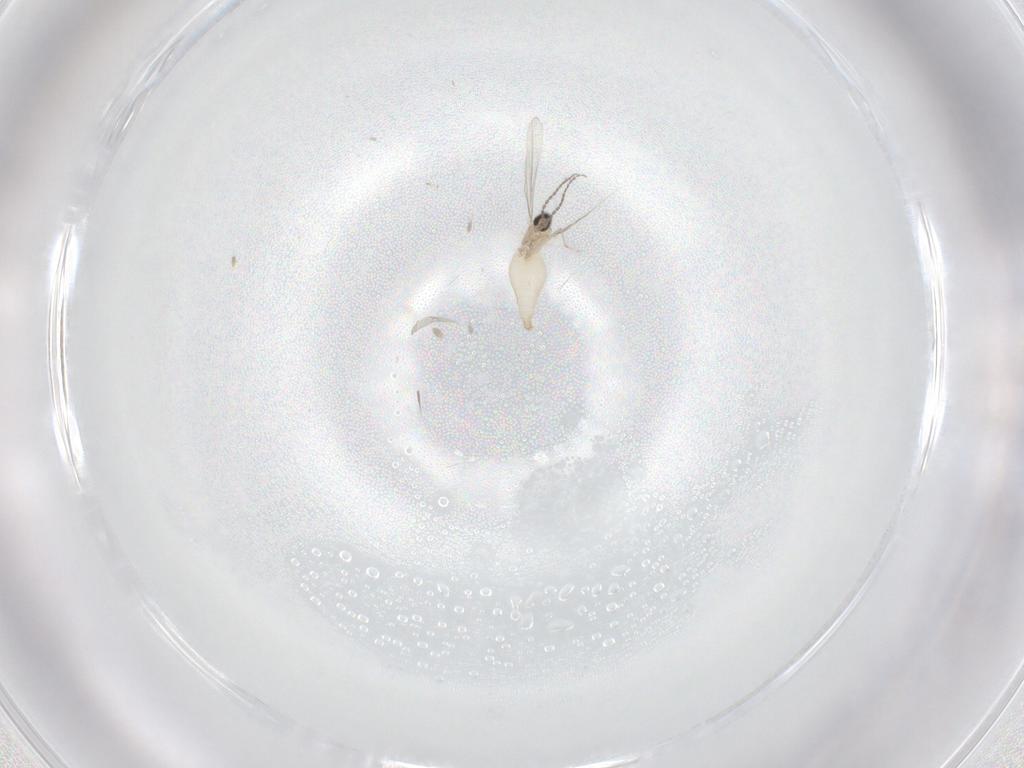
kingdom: Animalia
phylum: Arthropoda
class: Insecta
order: Diptera
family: Cecidomyiidae
